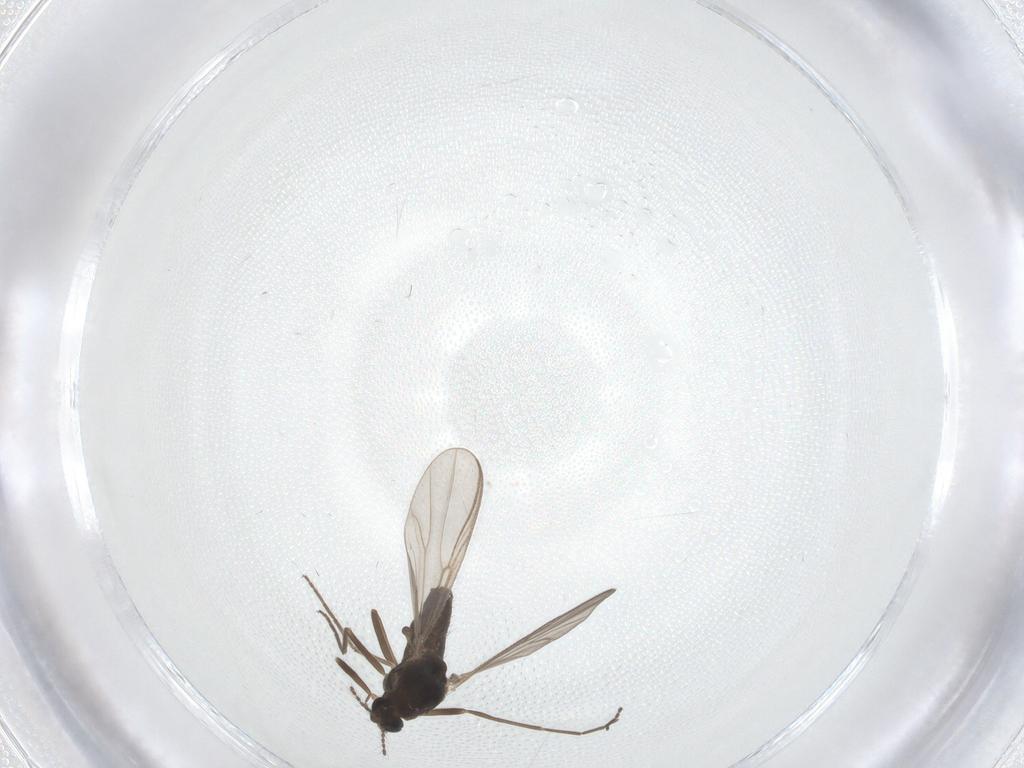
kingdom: Animalia
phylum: Arthropoda
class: Insecta
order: Diptera
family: Chironomidae
